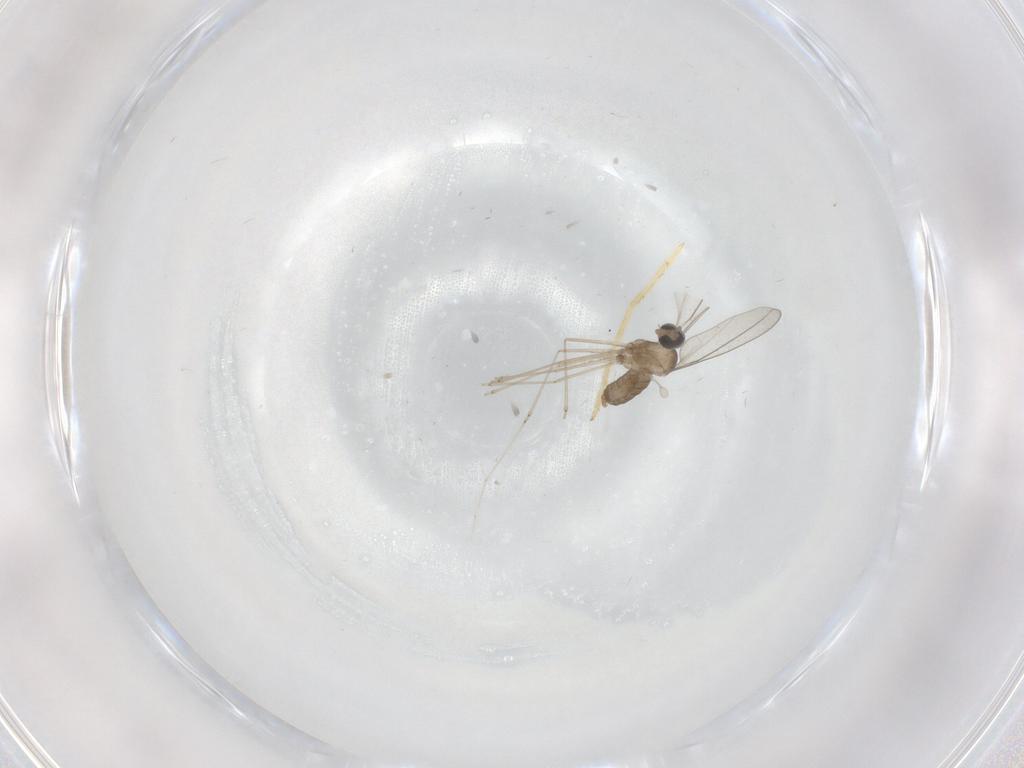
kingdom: Animalia
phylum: Arthropoda
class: Insecta
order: Diptera
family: Cecidomyiidae
